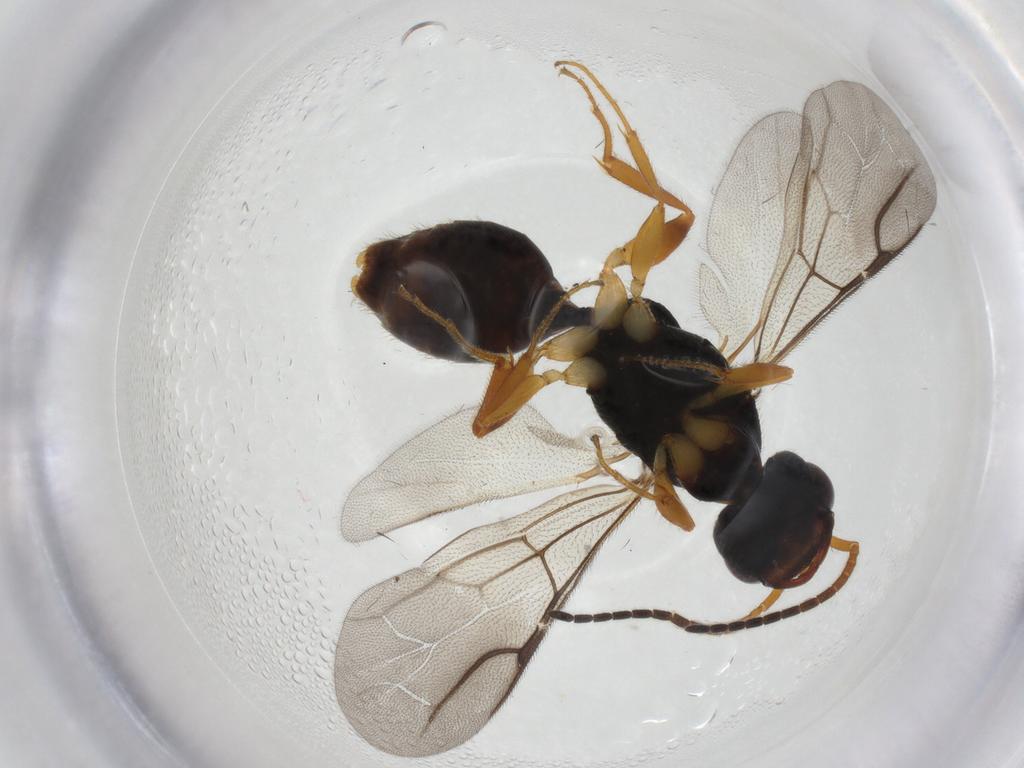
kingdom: Animalia
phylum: Arthropoda
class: Insecta
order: Hymenoptera
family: Bethylidae
